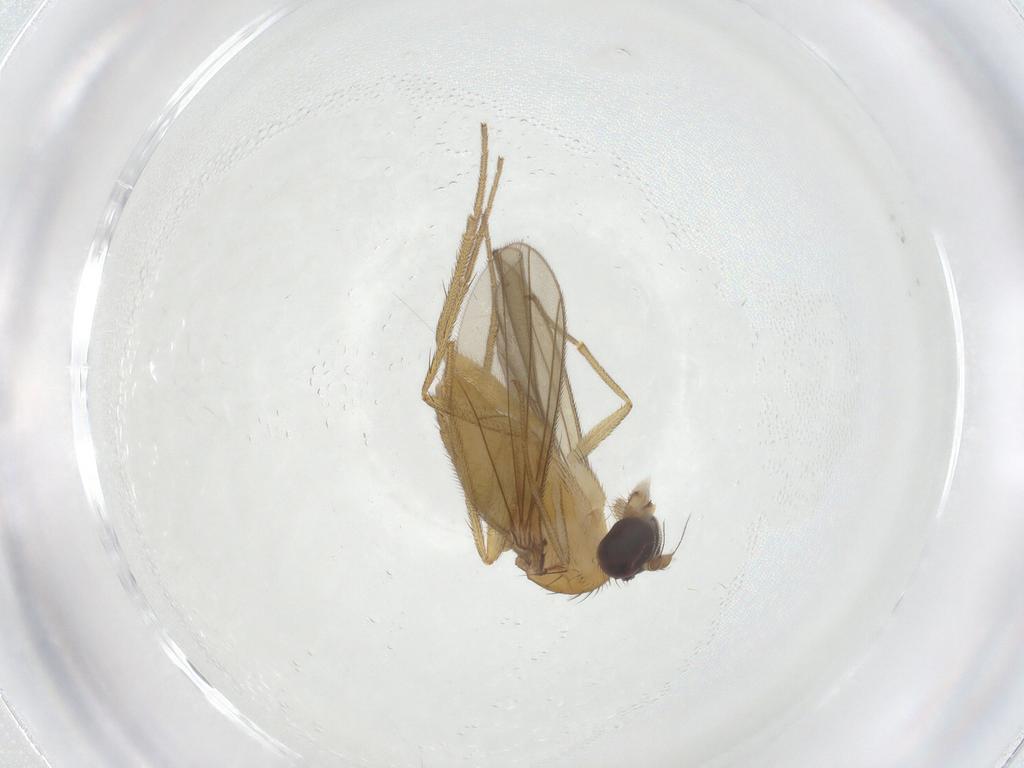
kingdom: Animalia
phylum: Arthropoda
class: Insecta
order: Diptera
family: Dolichopodidae
